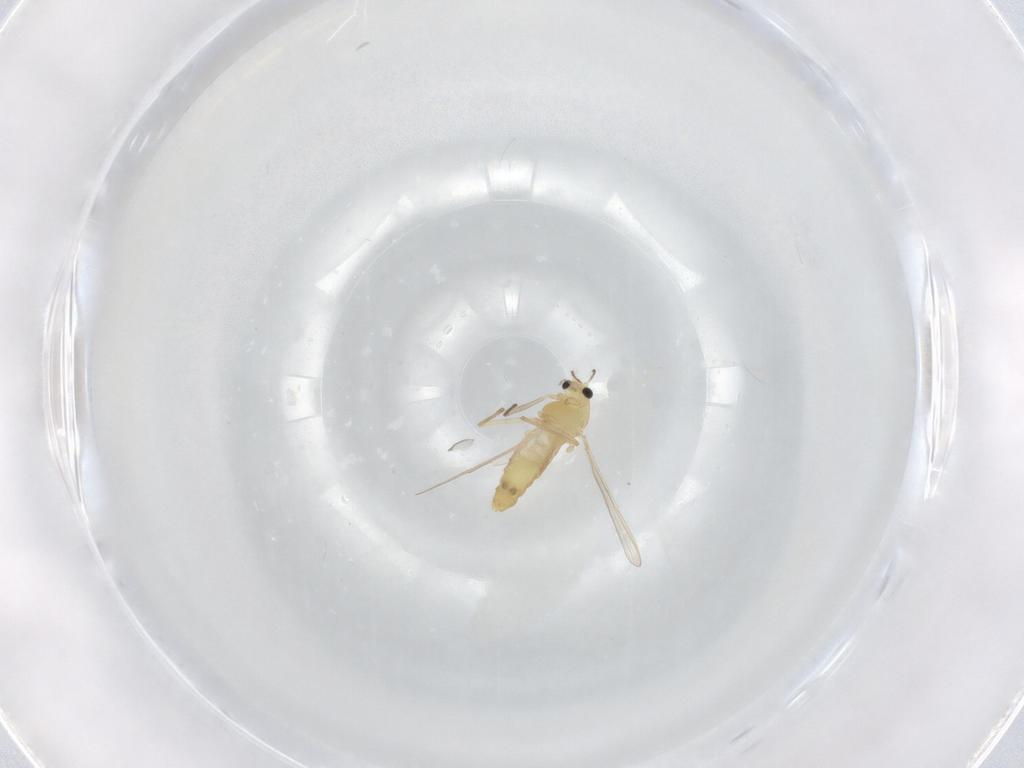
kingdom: Animalia
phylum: Arthropoda
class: Insecta
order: Diptera
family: Chironomidae
